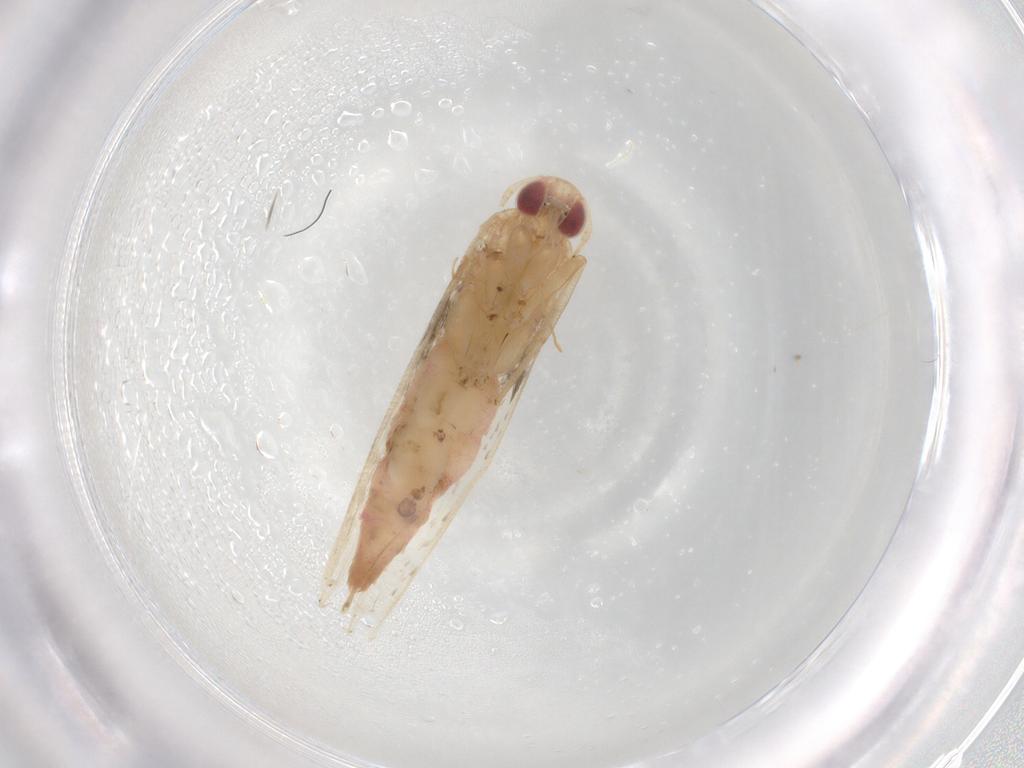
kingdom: Animalia
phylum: Arthropoda
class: Insecta
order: Lepidoptera
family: Cosmopterigidae
